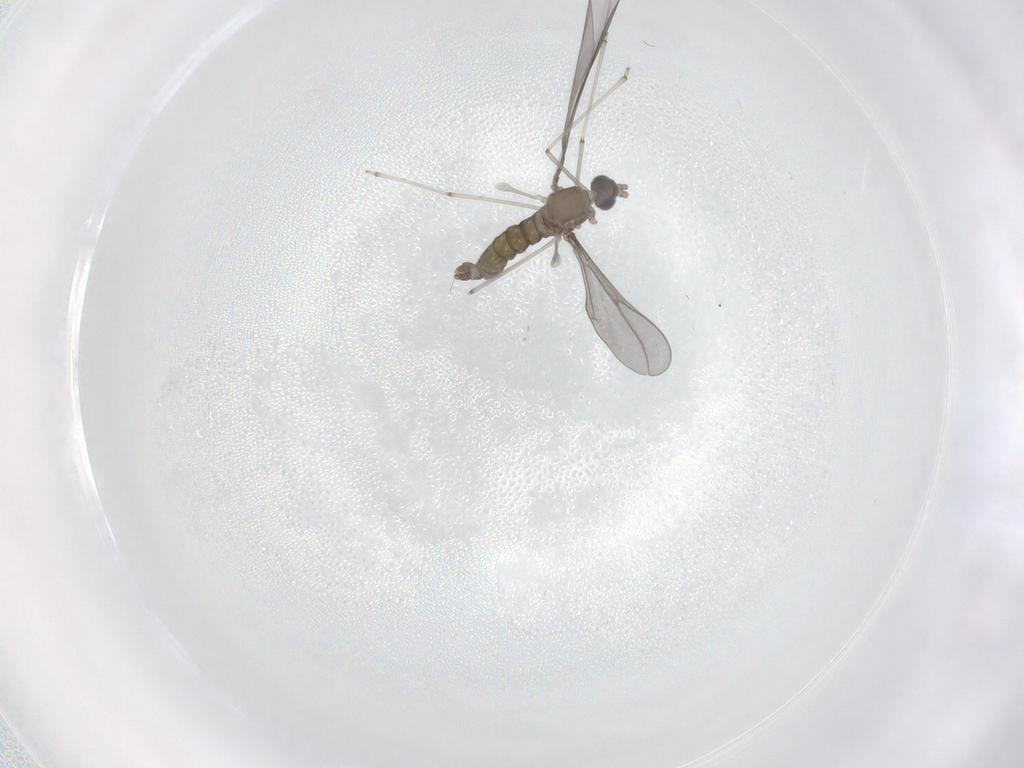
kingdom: Animalia
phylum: Arthropoda
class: Insecta
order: Diptera
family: Cecidomyiidae
